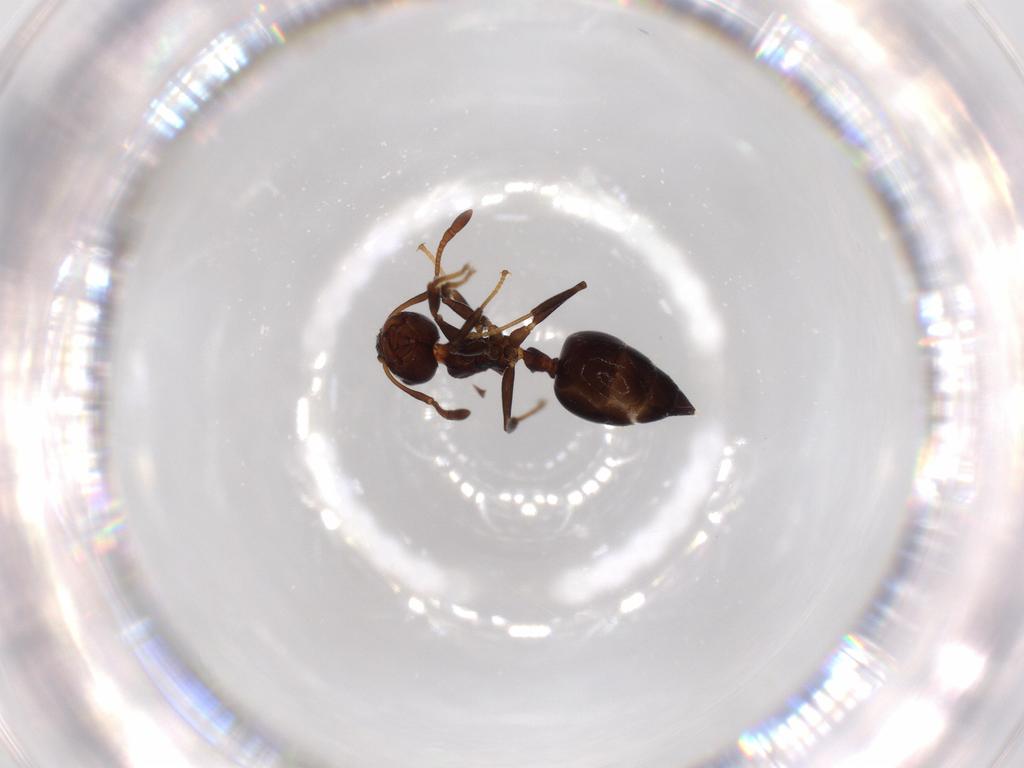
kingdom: Animalia
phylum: Arthropoda
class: Insecta
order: Hymenoptera
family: Formicidae
